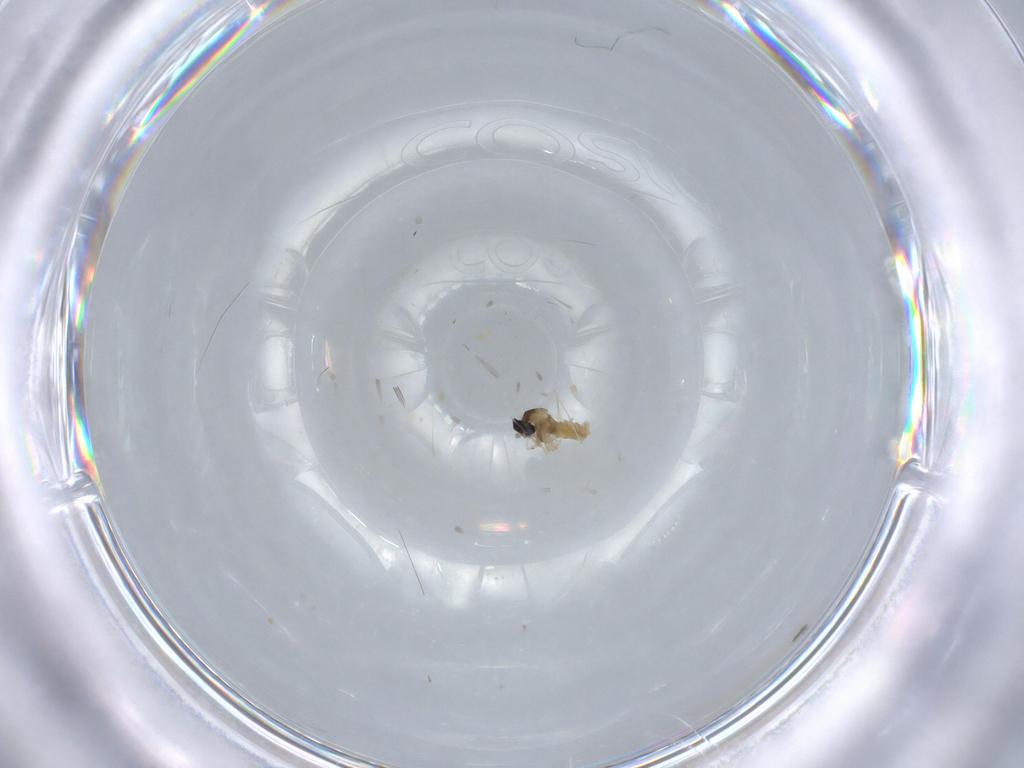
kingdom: Animalia
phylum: Arthropoda
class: Insecta
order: Diptera
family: Cecidomyiidae
